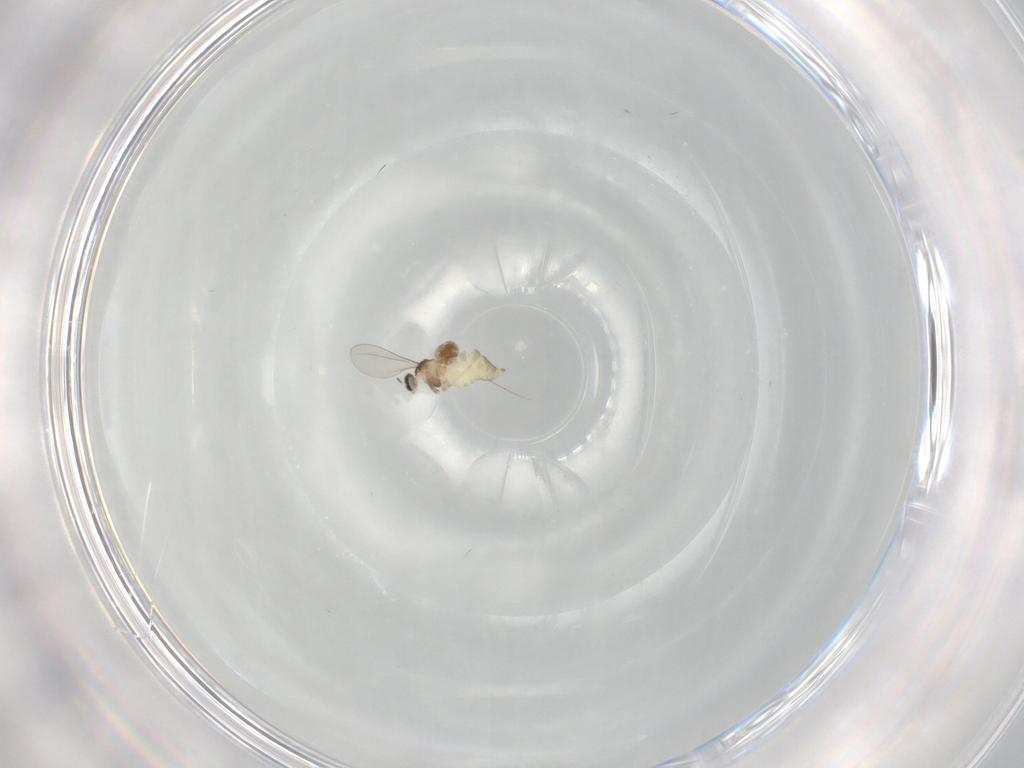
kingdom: Animalia
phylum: Arthropoda
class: Insecta
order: Diptera
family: Cecidomyiidae
